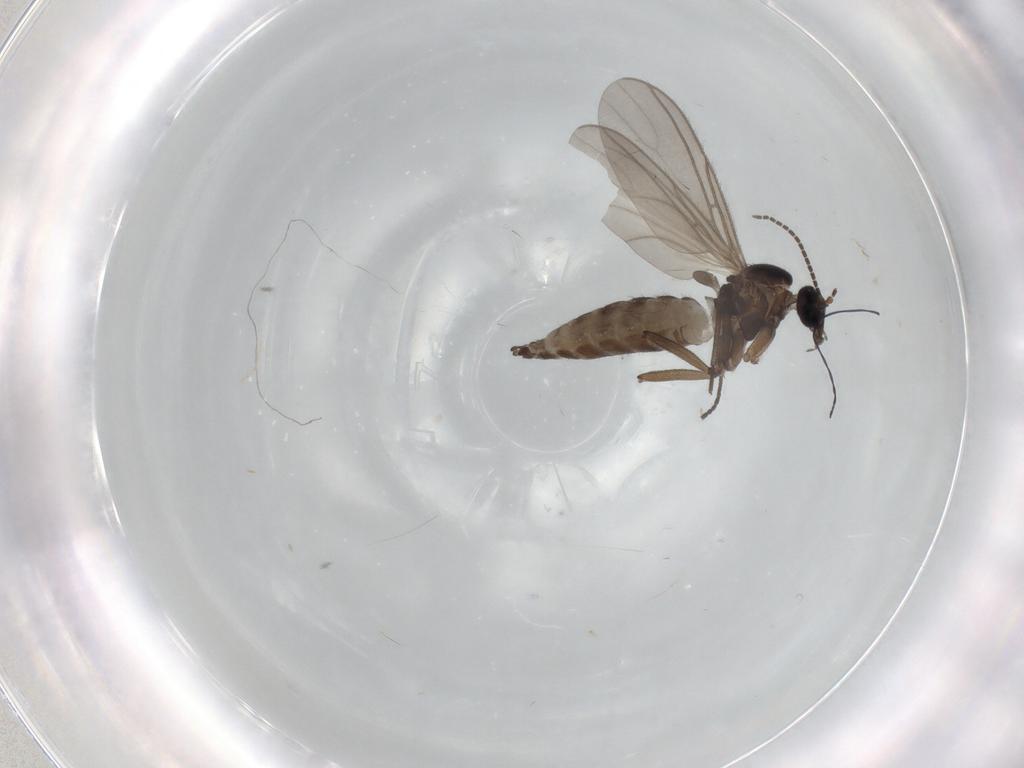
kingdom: Animalia
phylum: Arthropoda
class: Insecta
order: Diptera
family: Sciaridae
